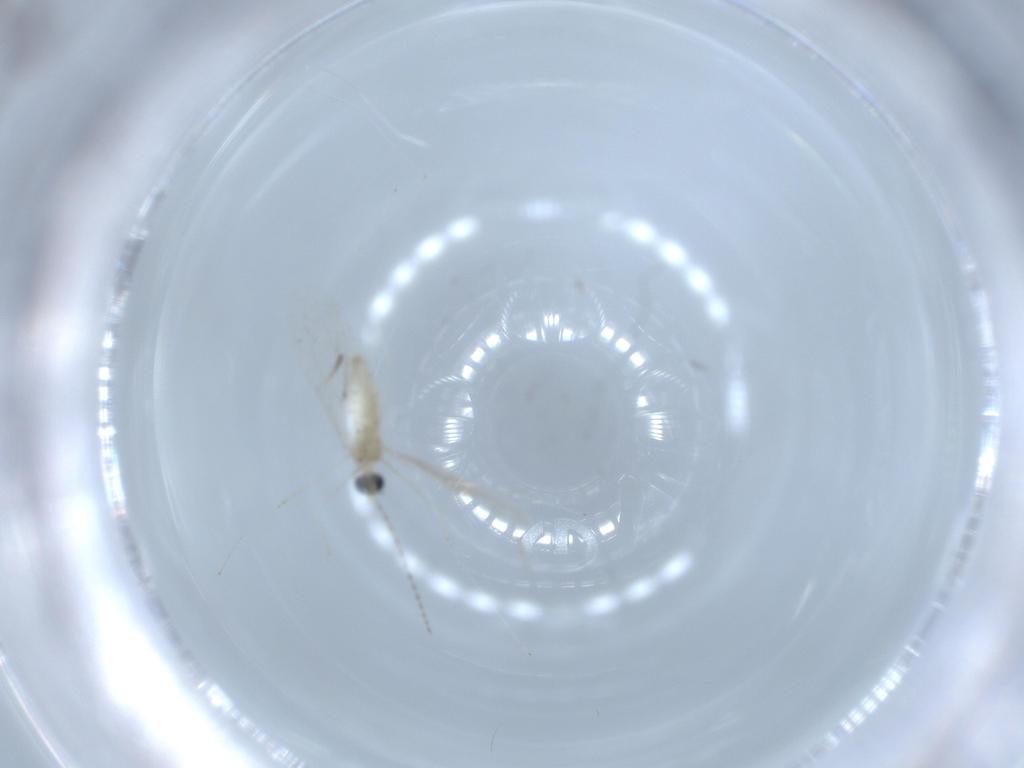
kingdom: Animalia
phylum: Arthropoda
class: Insecta
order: Diptera
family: Cecidomyiidae
